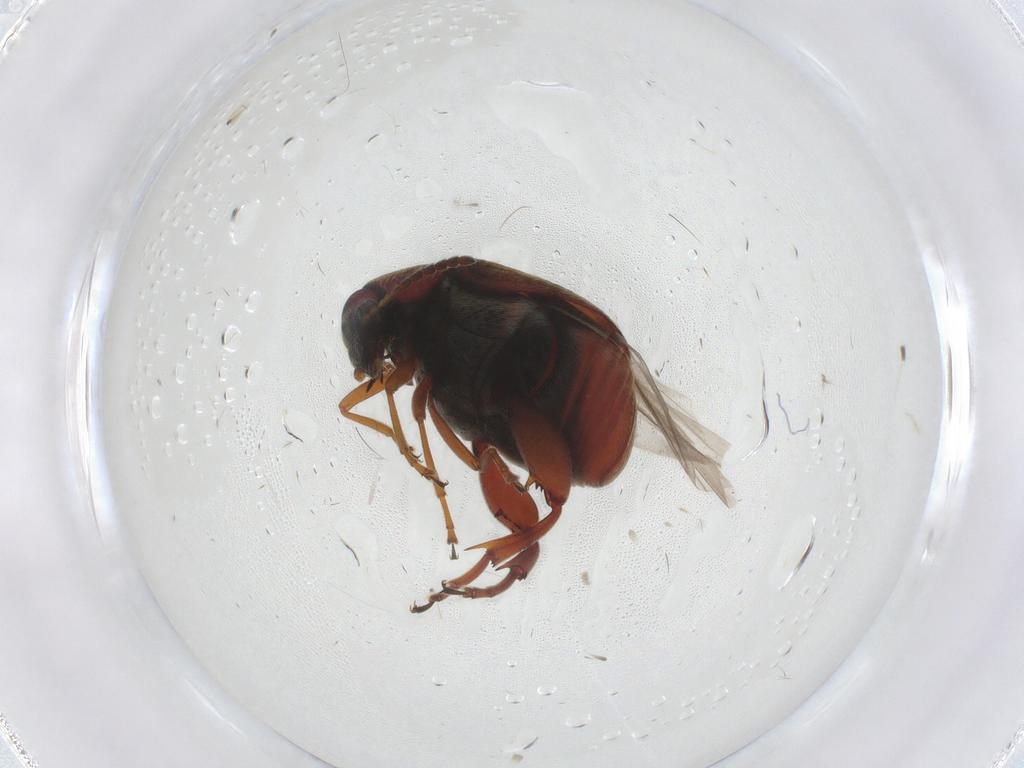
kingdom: Animalia
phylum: Arthropoda
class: Insecta
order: Coleoptera
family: Chrysomelidae
